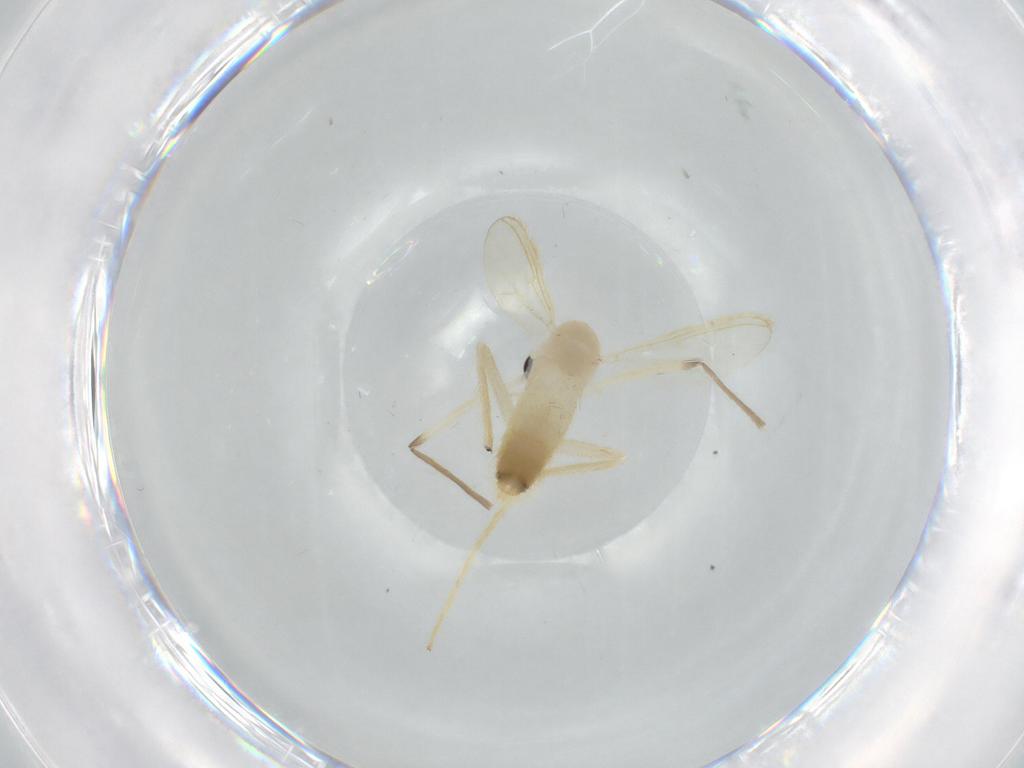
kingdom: Animalia
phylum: Arthropoda
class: Insecta
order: Diptera
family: Chironomidae
